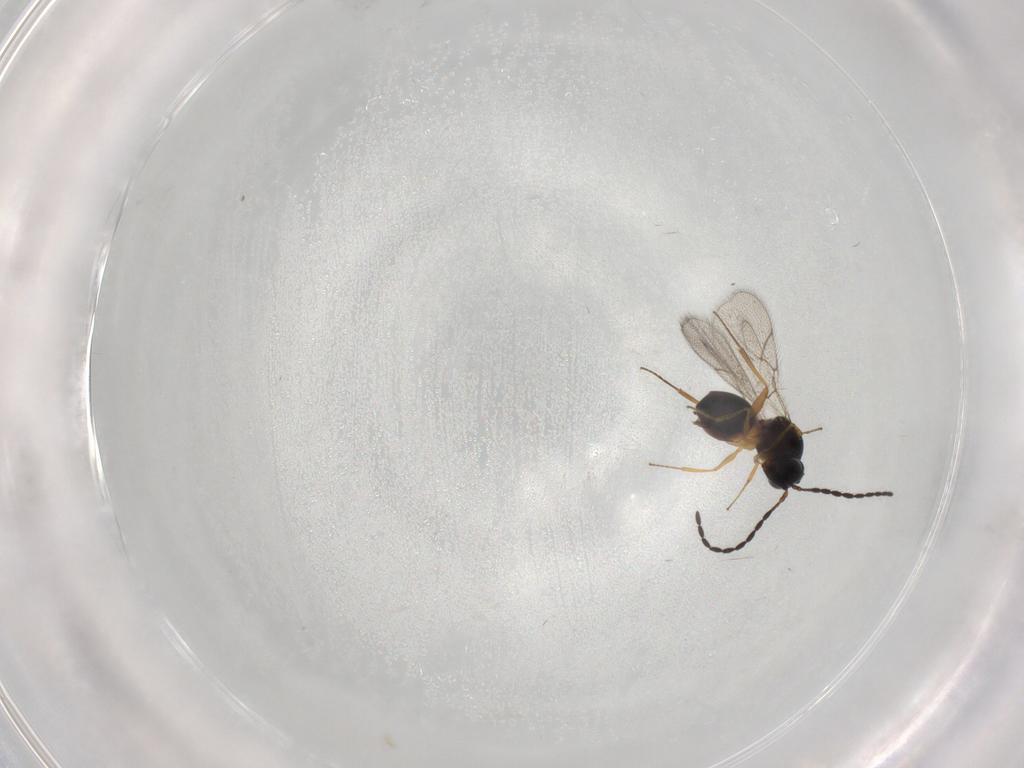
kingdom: Animalia
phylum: Arthropoda
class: Insecta
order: Hymenoptera
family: Figitidae
